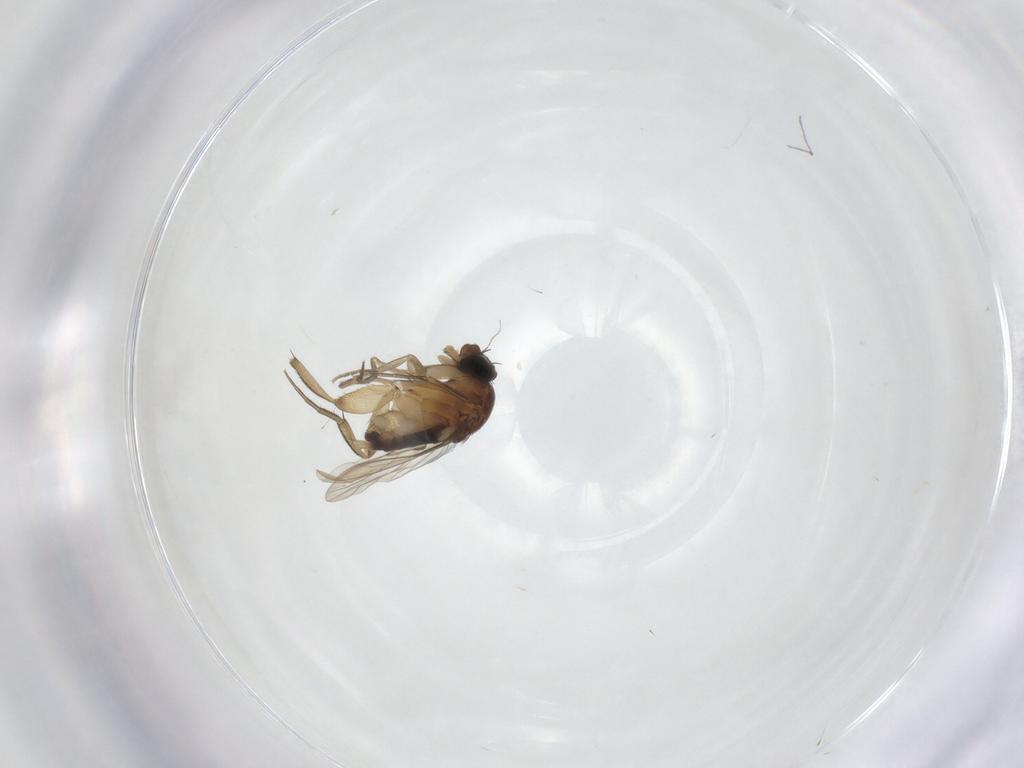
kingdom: Animalia
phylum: Arthropoda
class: Insecta
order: Diptera
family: Phoridae
